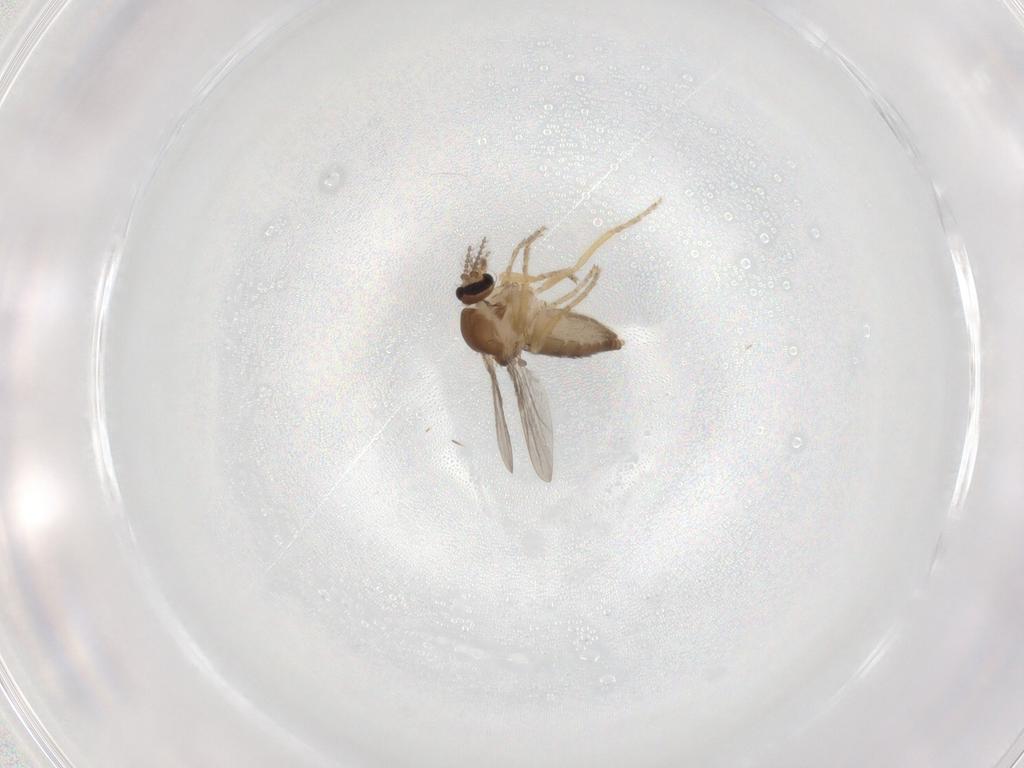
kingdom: Animalia
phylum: Arthropoda
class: Insecta
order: Diptera
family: Ceratopogonidae
